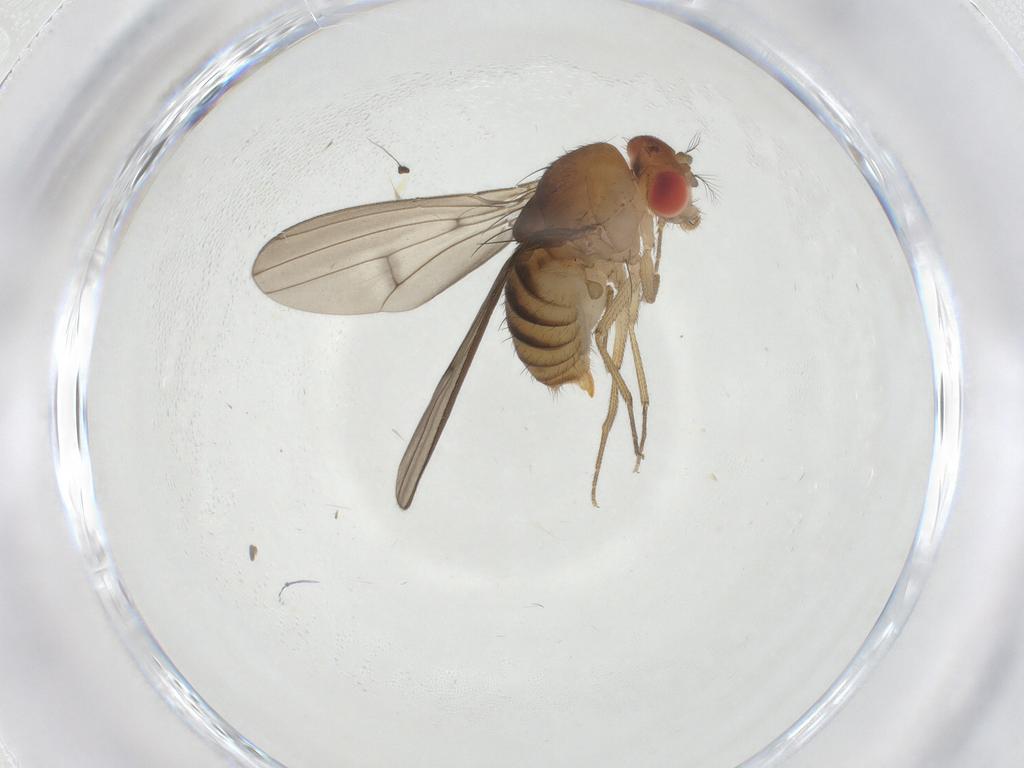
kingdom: Animalia
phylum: Arthropoda
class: Insecta
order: Diptera
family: Drosophilidae
